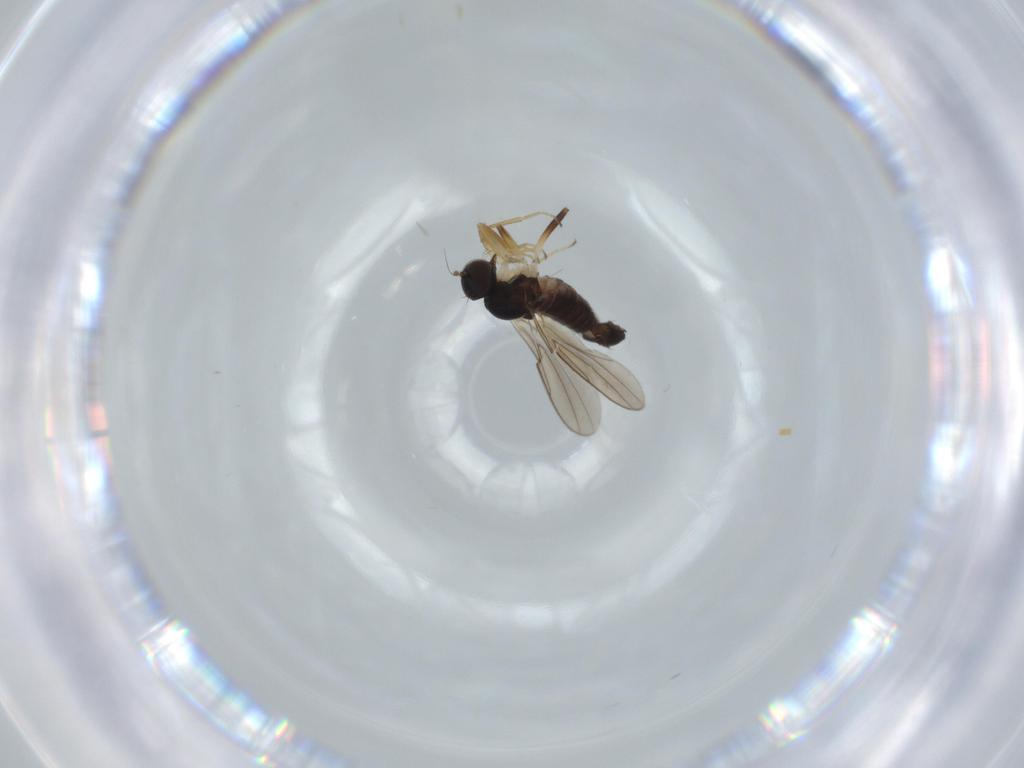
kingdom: Animalia
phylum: Arthropoda
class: Insecta
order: Diptera
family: Hybotidae
